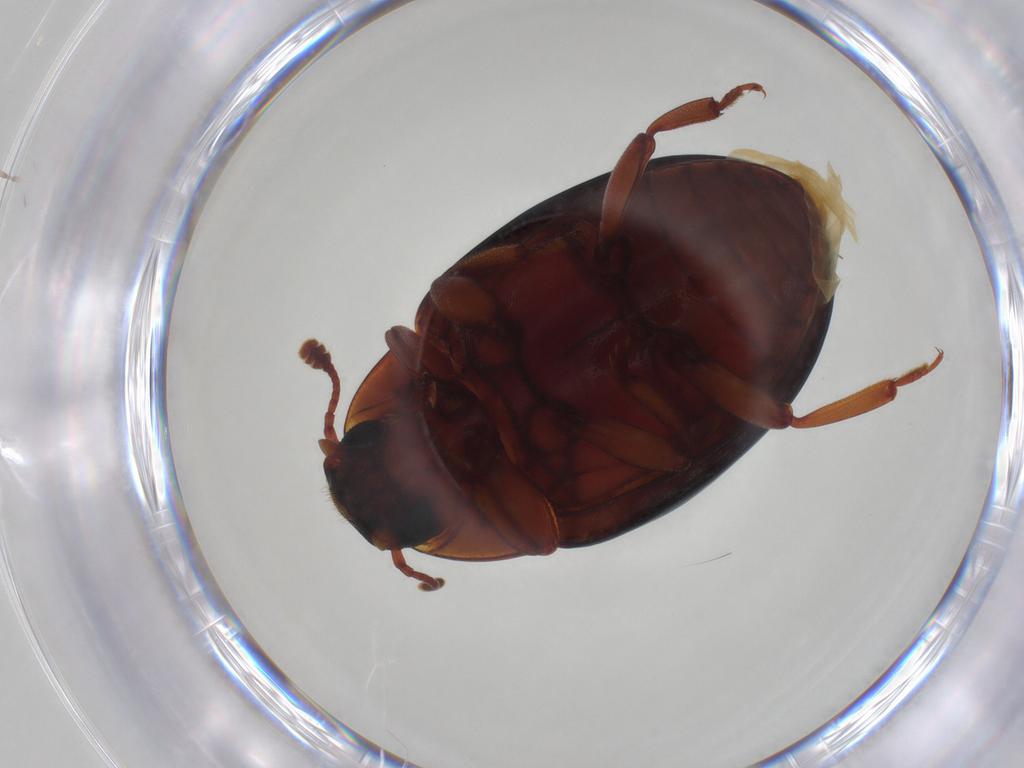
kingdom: Animalia
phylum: Arthropoda
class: Insecta
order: Coleoptera
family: Zopheridae
